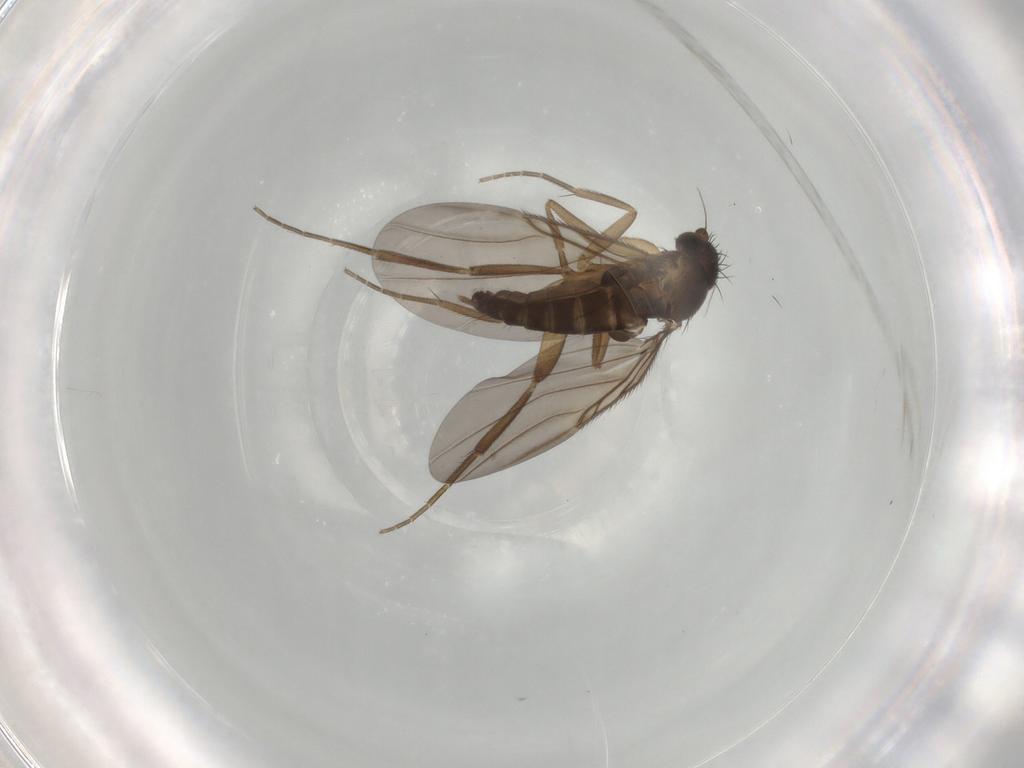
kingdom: Animalia
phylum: Arthropoda
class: Insecta
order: Diptera
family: Phoridae
